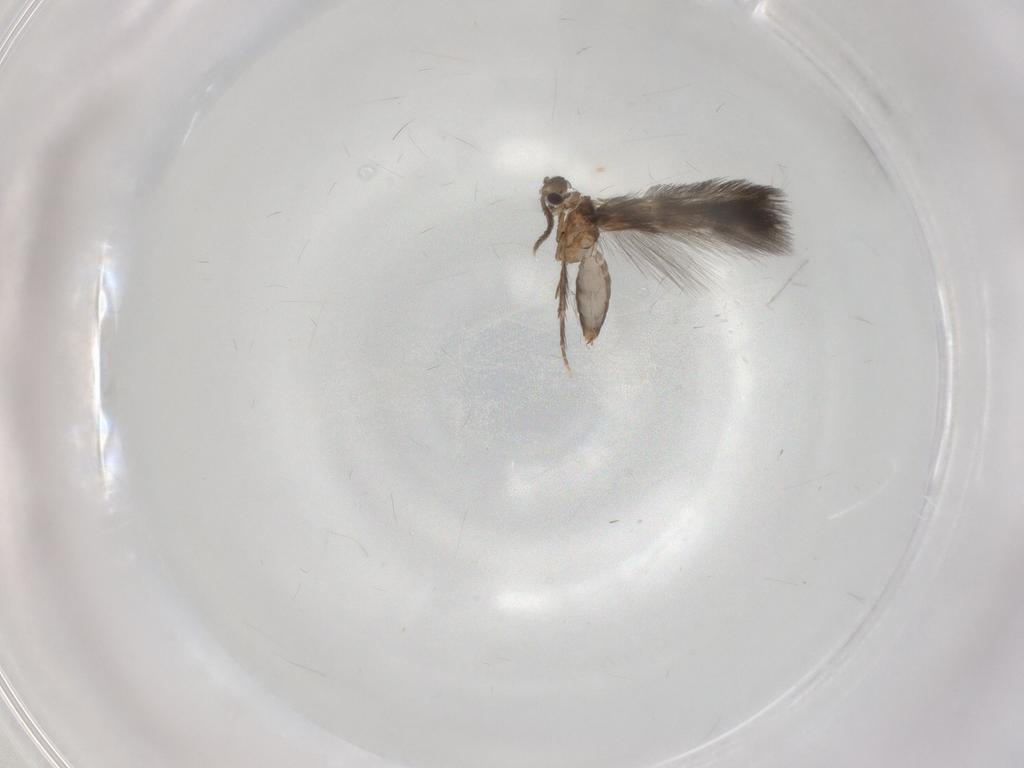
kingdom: Animalia
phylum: Arthropoda
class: Insecta
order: Trichoptera
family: Hydroptilidae
